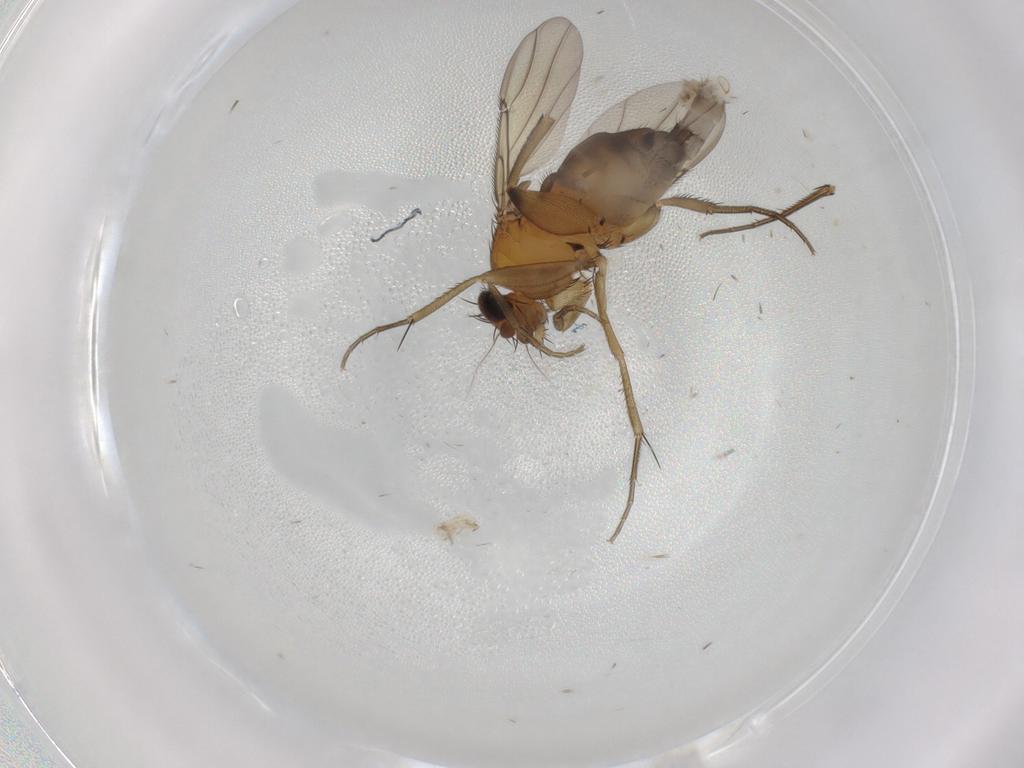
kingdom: Animalia
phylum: Arthropoda
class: Insecta
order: Diptera
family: Phoridae
